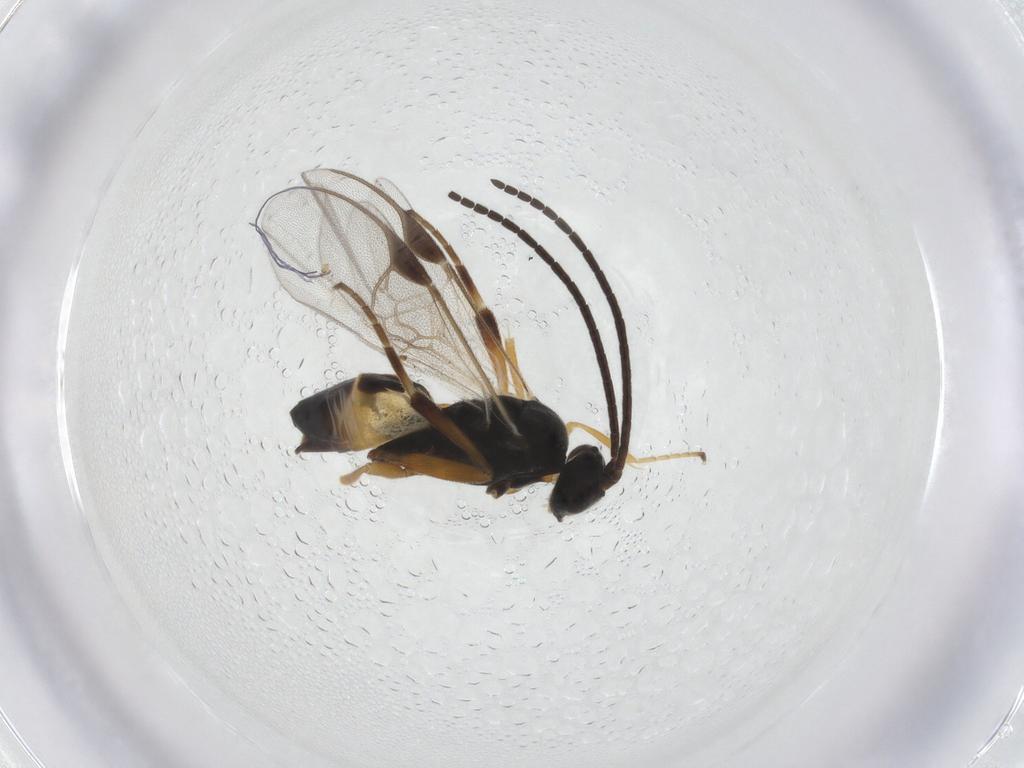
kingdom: Animalia
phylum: Arthropoda
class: Insecta
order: Hymenoptera
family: Braconidae
